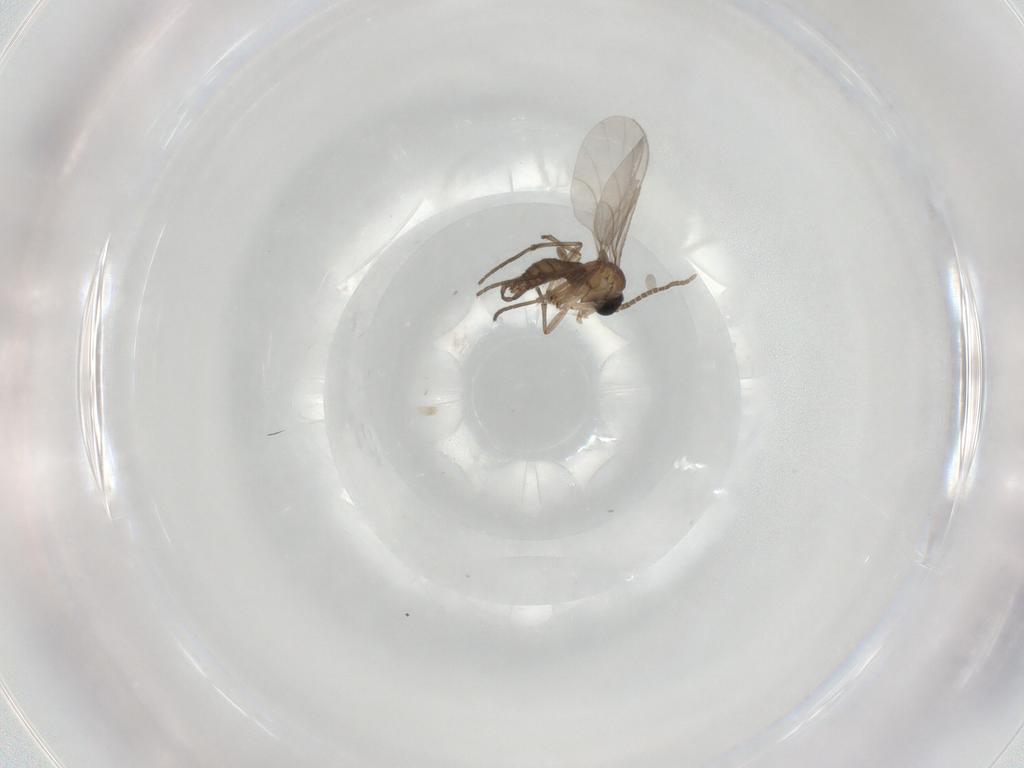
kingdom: Animalia
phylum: Arthropoda
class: Insecta
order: Diptera
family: Sciaridae
